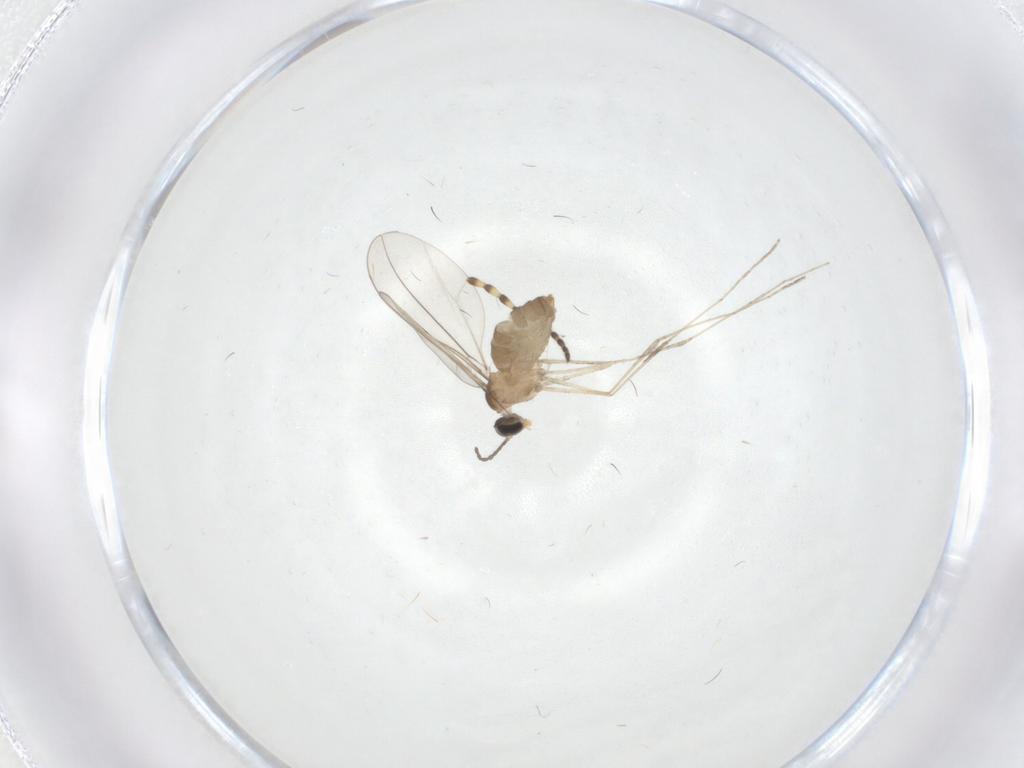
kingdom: Animalia
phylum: Arthropoda
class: Insecta
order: Diptera
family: Cecidomyiidae
